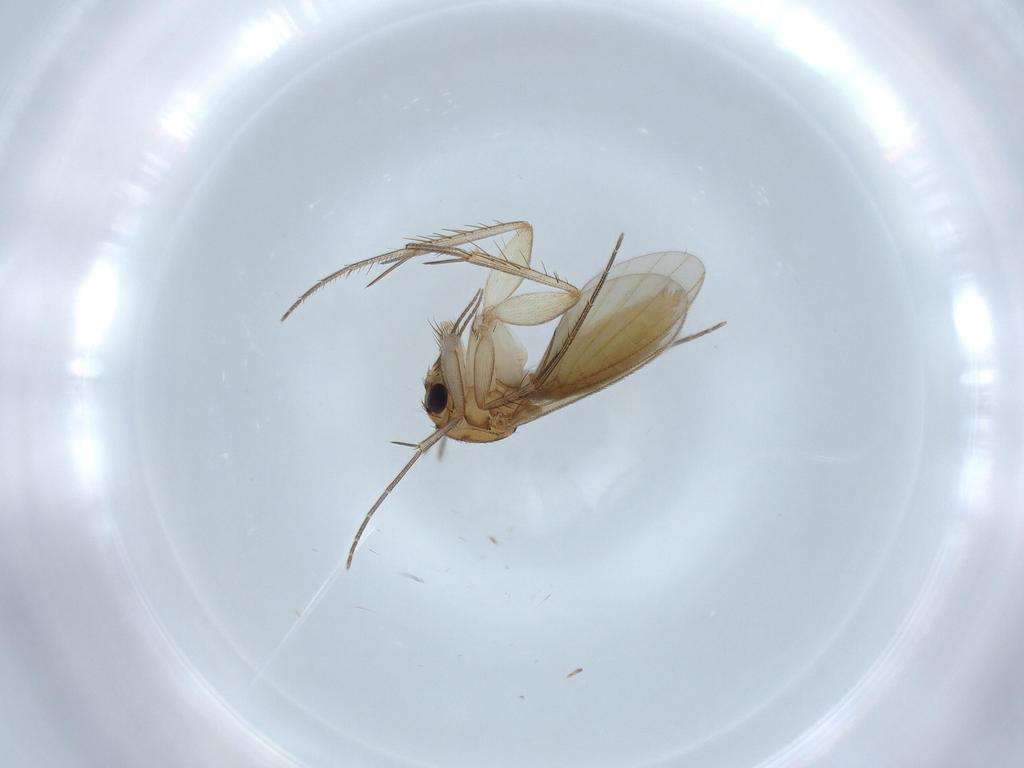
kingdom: Animalia
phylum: Arthropoda
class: Insecta
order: Diptera
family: Mycetophilidae
